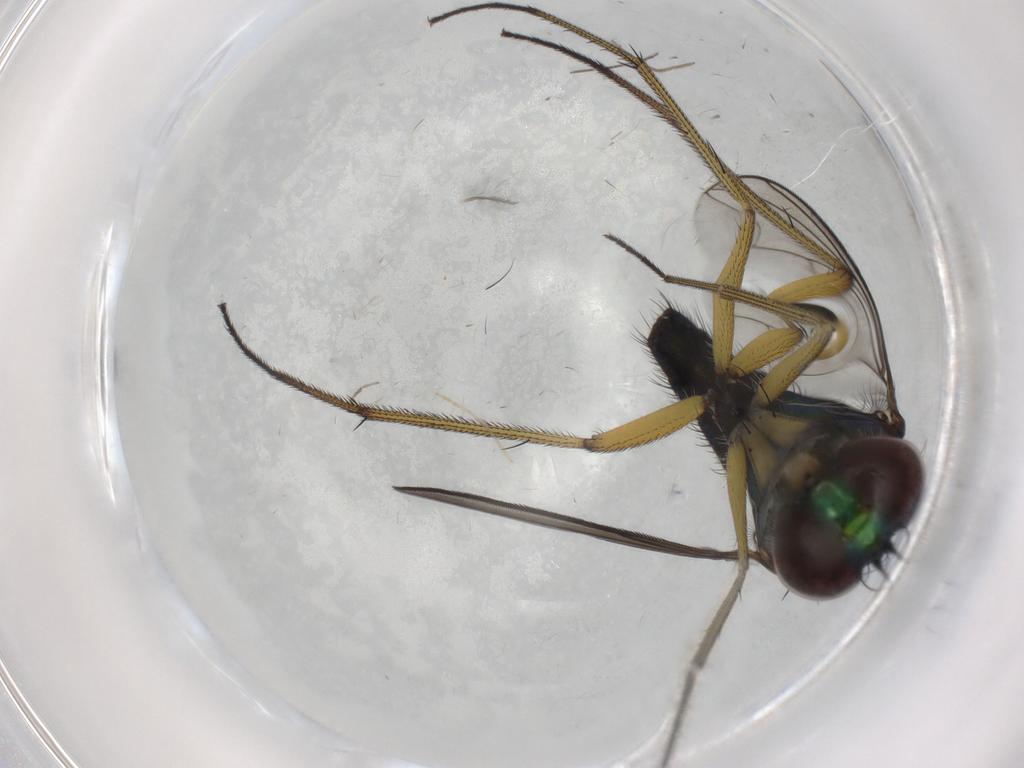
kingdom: Animalia
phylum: Arthropoda
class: Insecta
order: Diptera
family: Dolichopodidae
